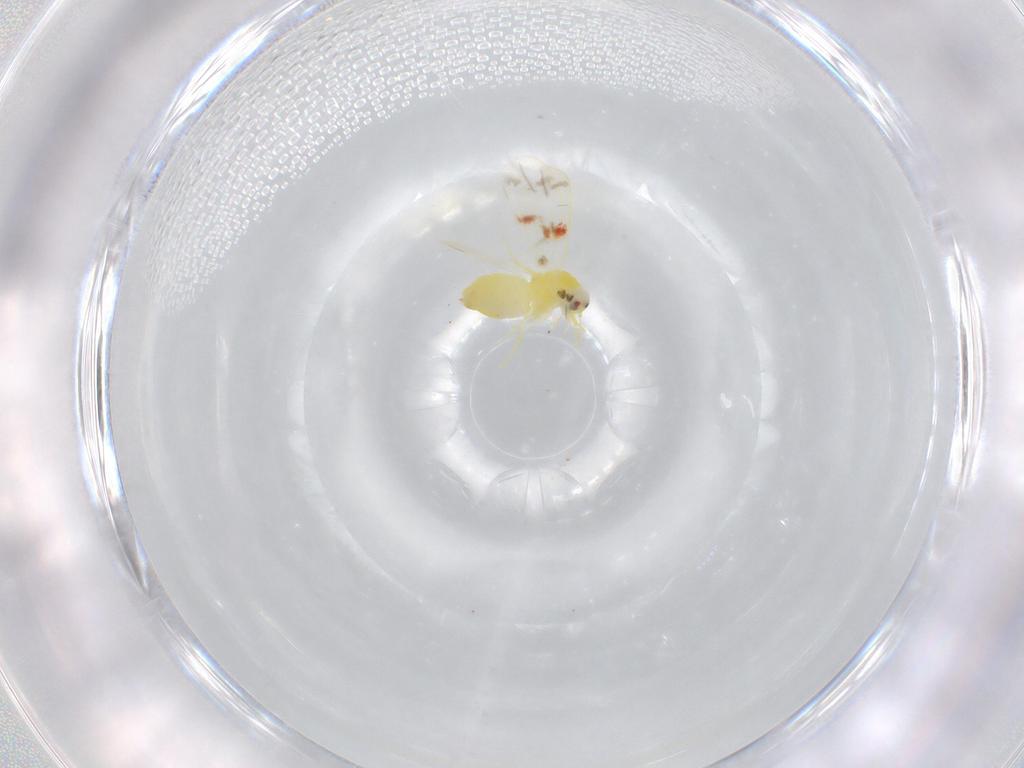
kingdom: Animalia
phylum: Arthropoda
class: Insecta
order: Hemiptera
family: Aleyrodidae
